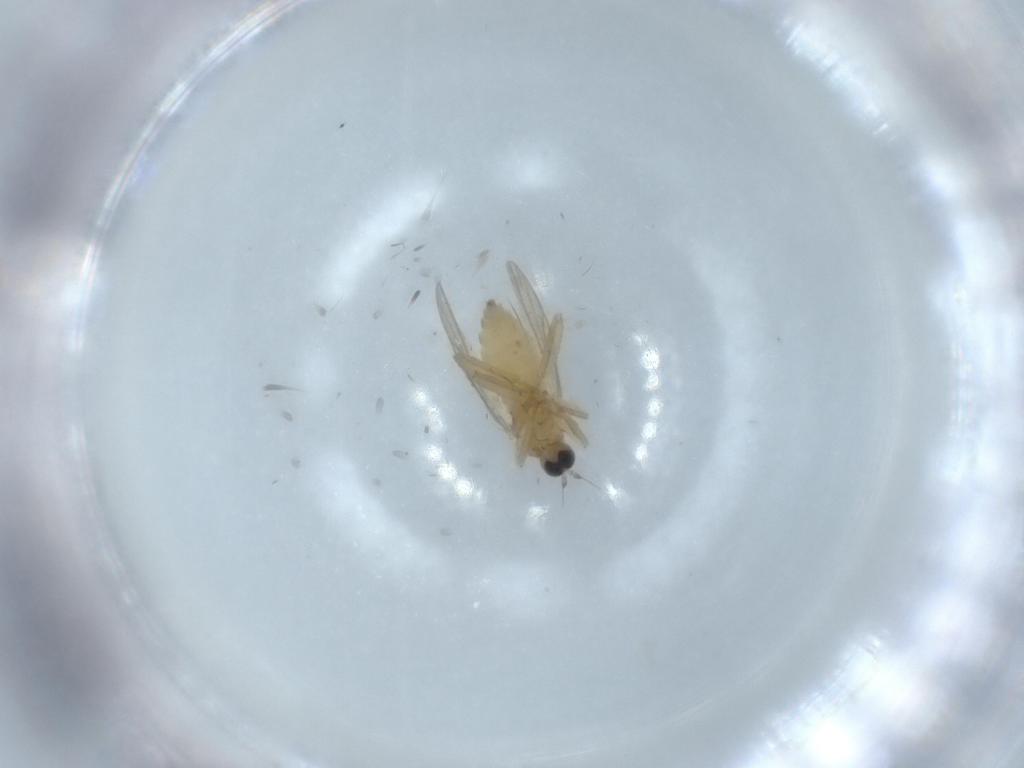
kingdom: Animalia
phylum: Arthropoda
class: Insecta
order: Diptera
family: Hybotidae
